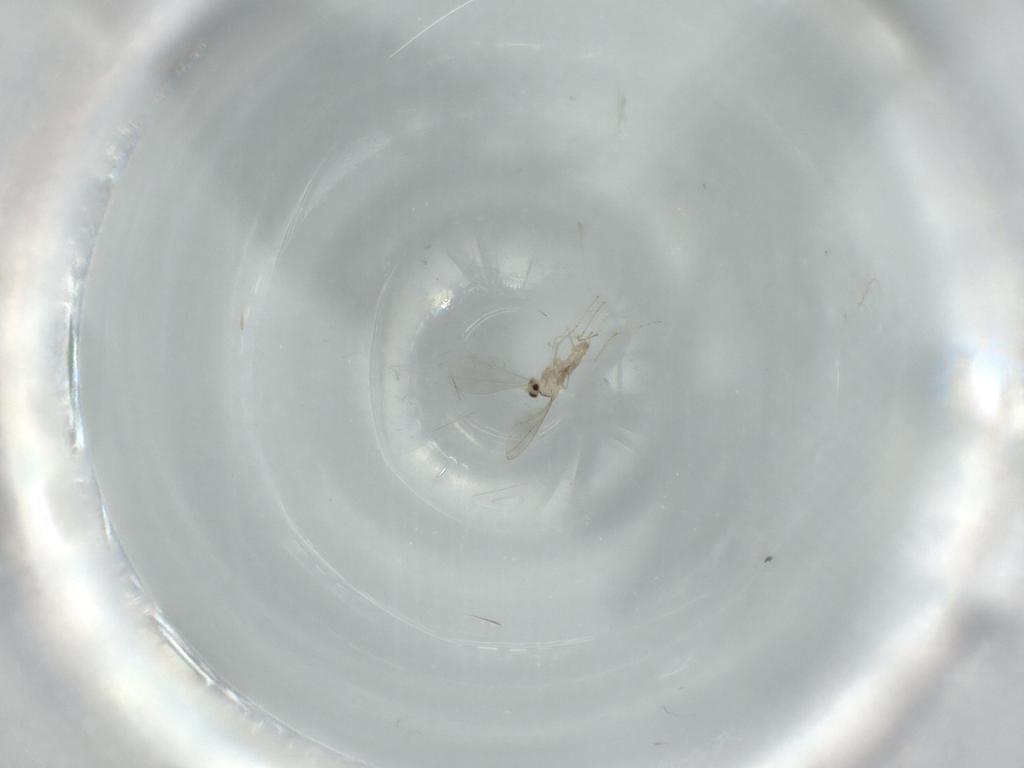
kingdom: Animalia
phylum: Arthropoda
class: Insecta
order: Diptera
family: Cecidomyiidae
